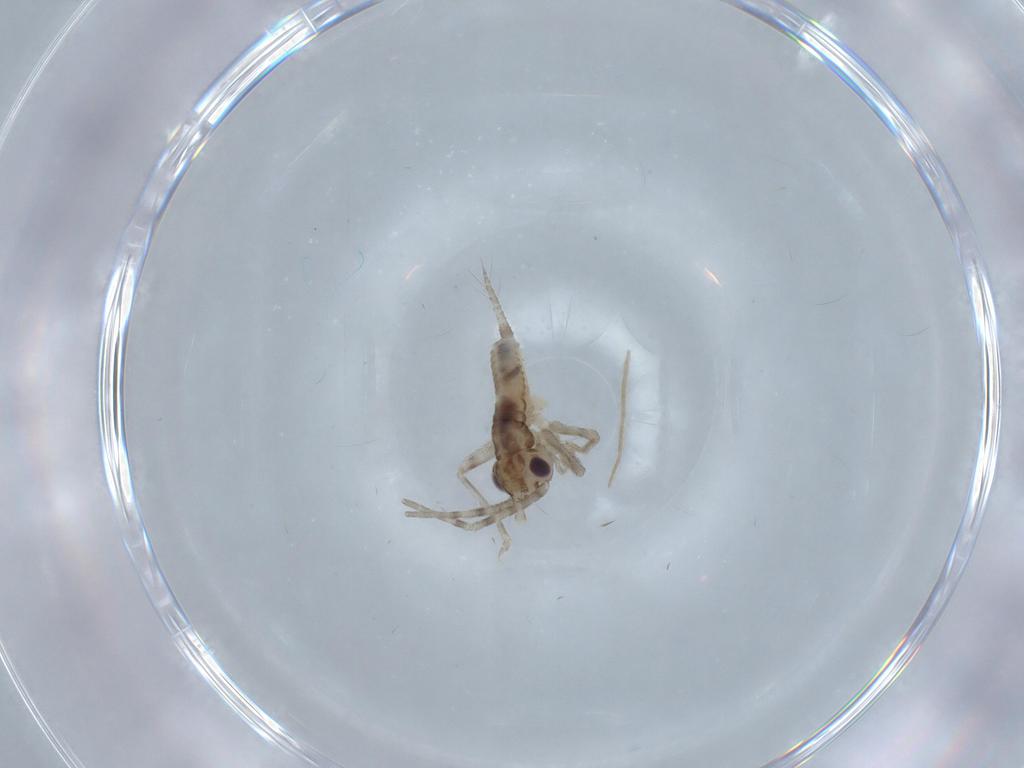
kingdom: Animalia
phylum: Arthropoda
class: Insecta
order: Orthoptera
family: Trigonidiidae
